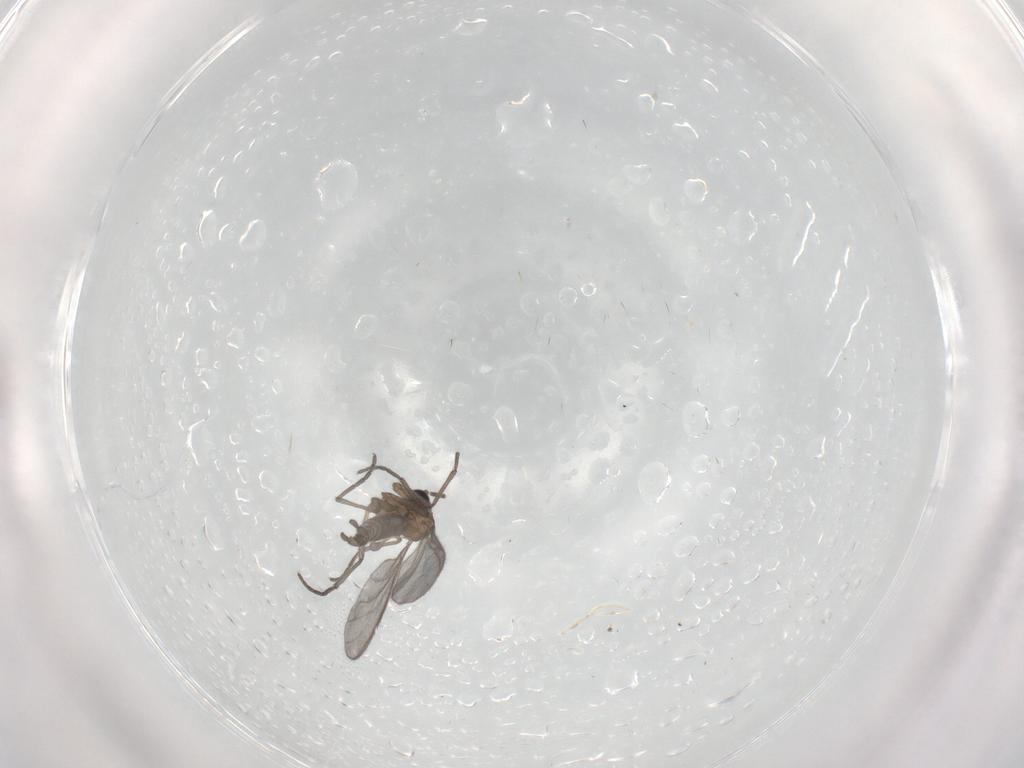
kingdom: Animalia
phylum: Arthropoda
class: Insecta
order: Diptera
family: Sciaridae
